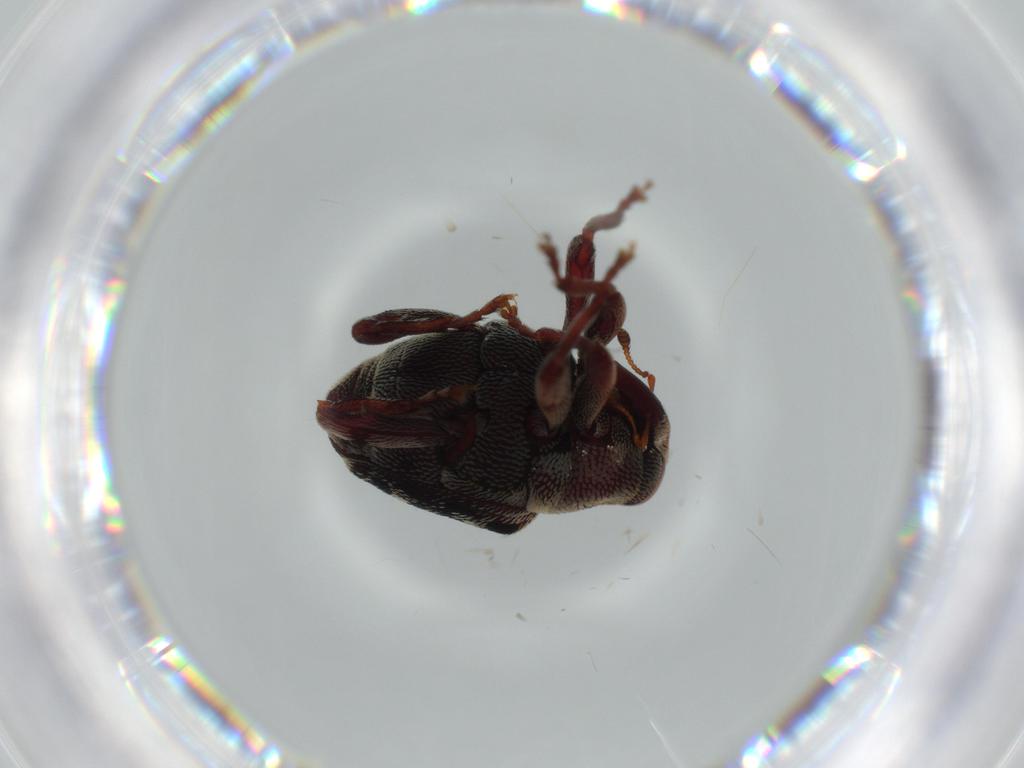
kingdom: Animalia
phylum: Arthropoda
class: Insecta
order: Coleoptera
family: Curculionidae
